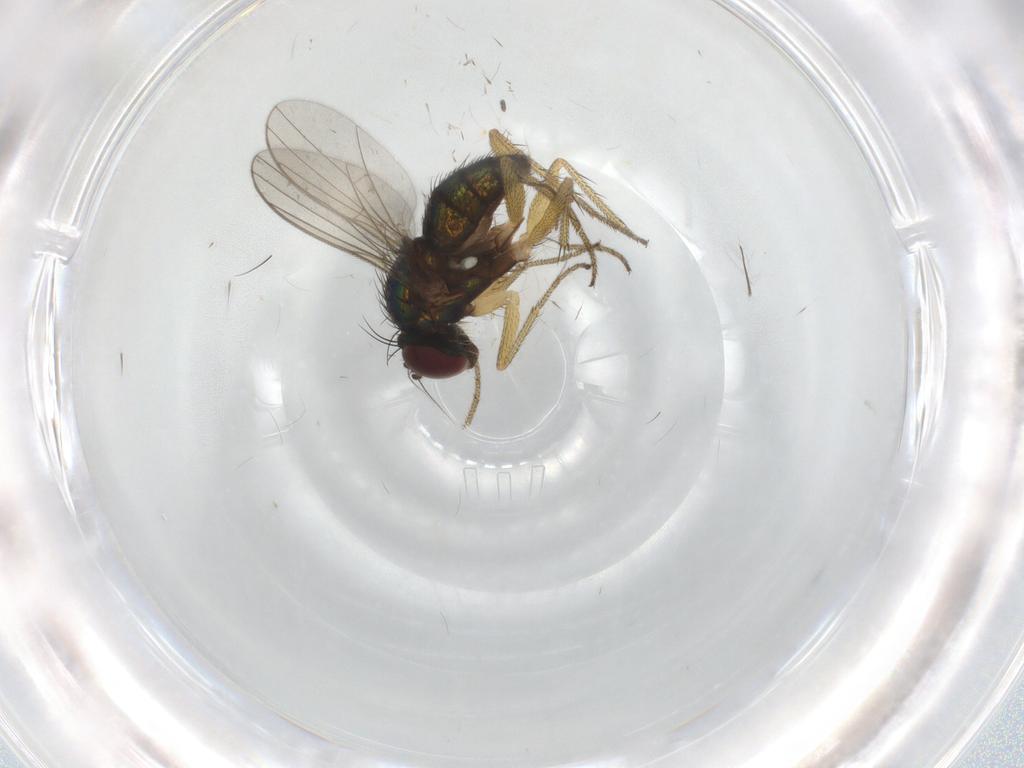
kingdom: Animalia
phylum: Arthropoda
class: Insecta
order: Diptera
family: Chironomidae
